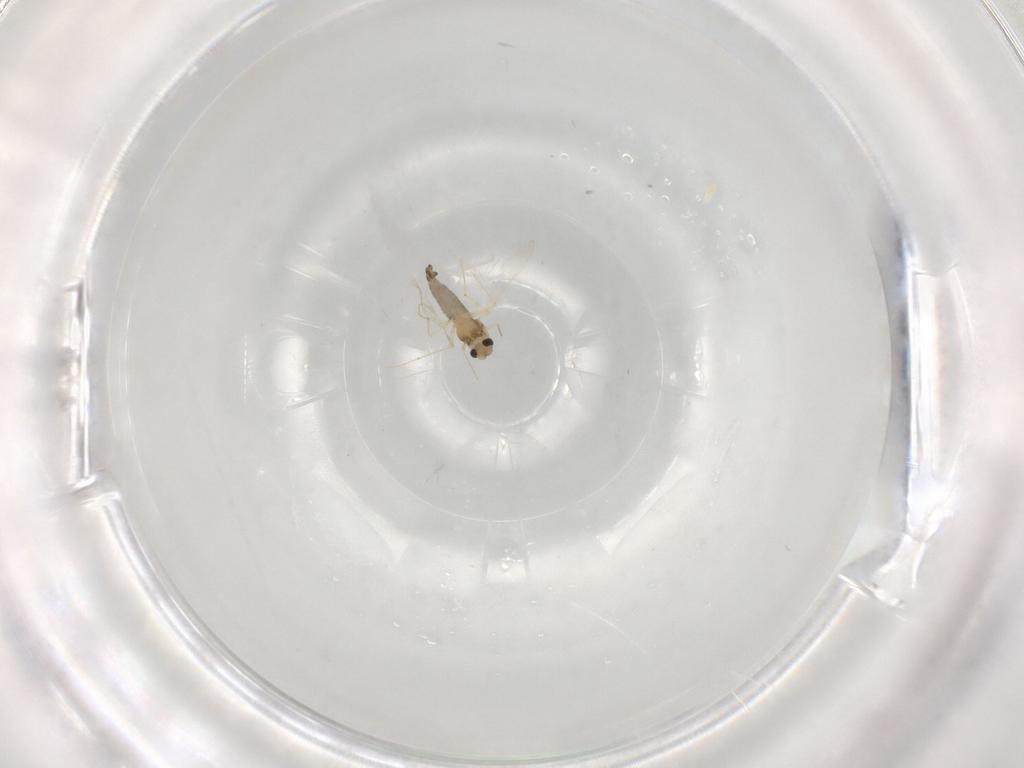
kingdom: Animalia
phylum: Arthropoda
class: Insecta
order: Diptera
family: Chironomidae
